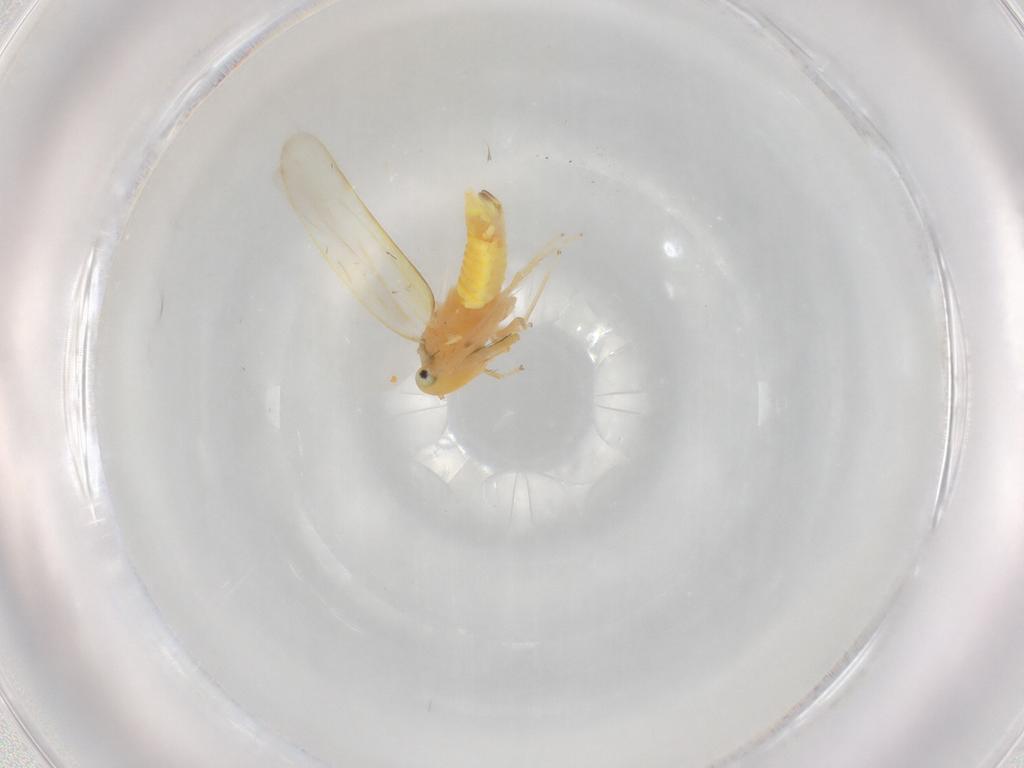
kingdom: Animalia
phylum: Arthropoda
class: Insecta
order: Hemiptera
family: Cicadellidae
